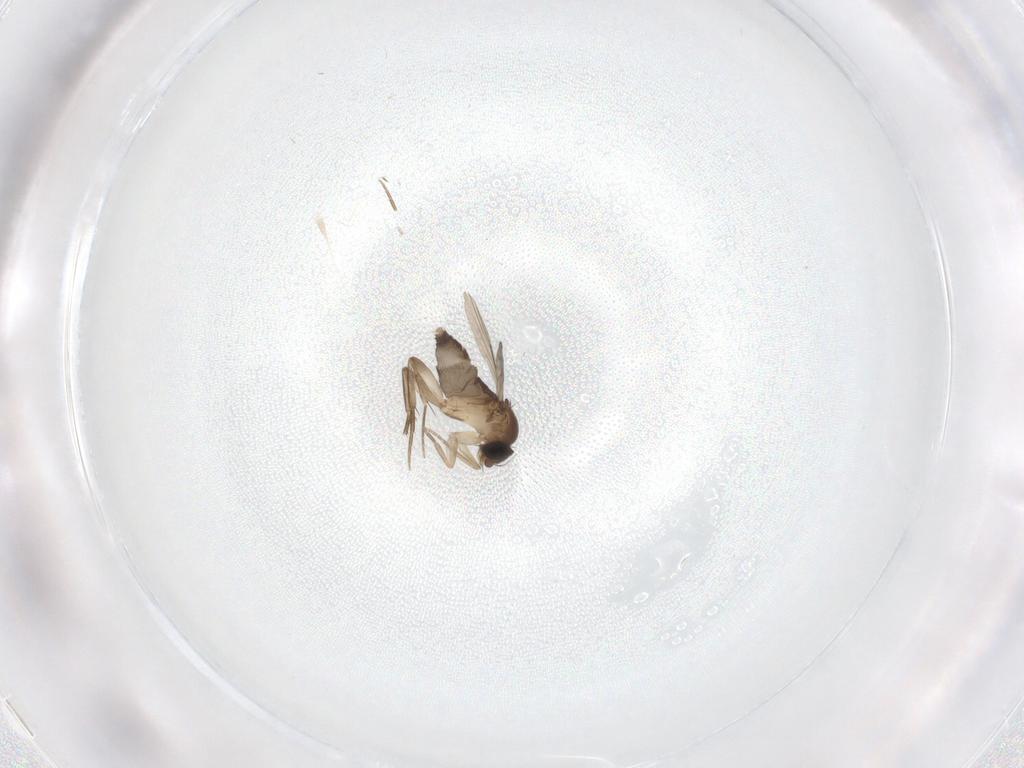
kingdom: Animalia
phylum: Arthropoda
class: Insecta
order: Diptera
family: Phoridae
